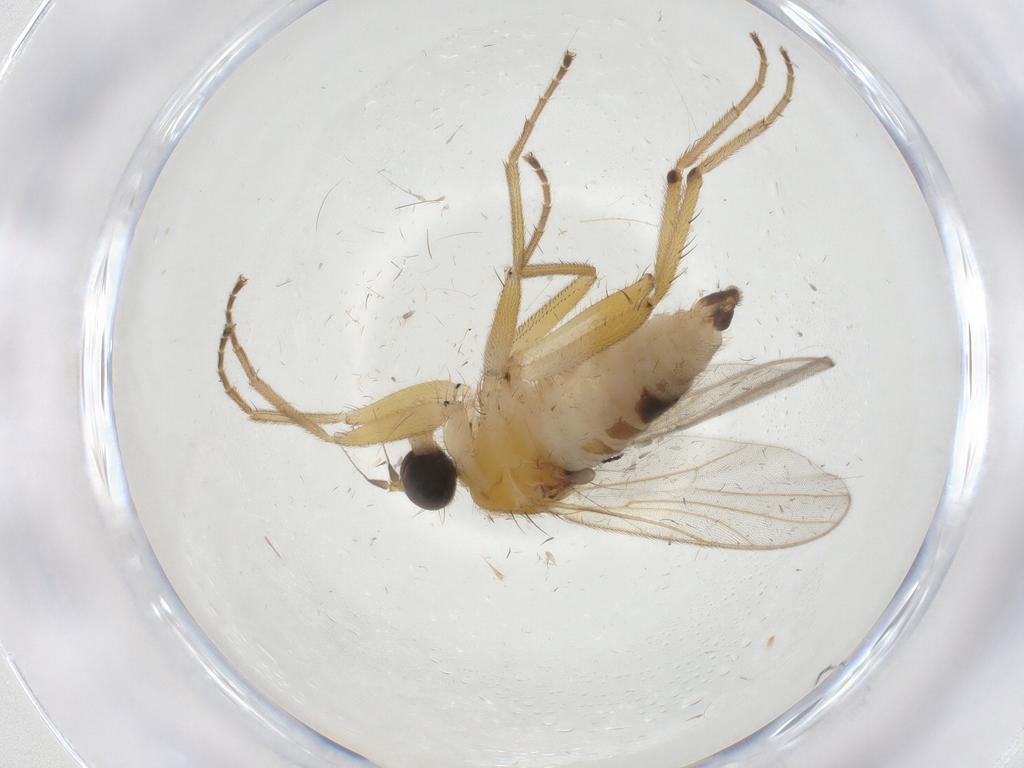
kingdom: Animalia
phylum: Arthropoda
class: Insecta
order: Diptera
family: Hybotidae
